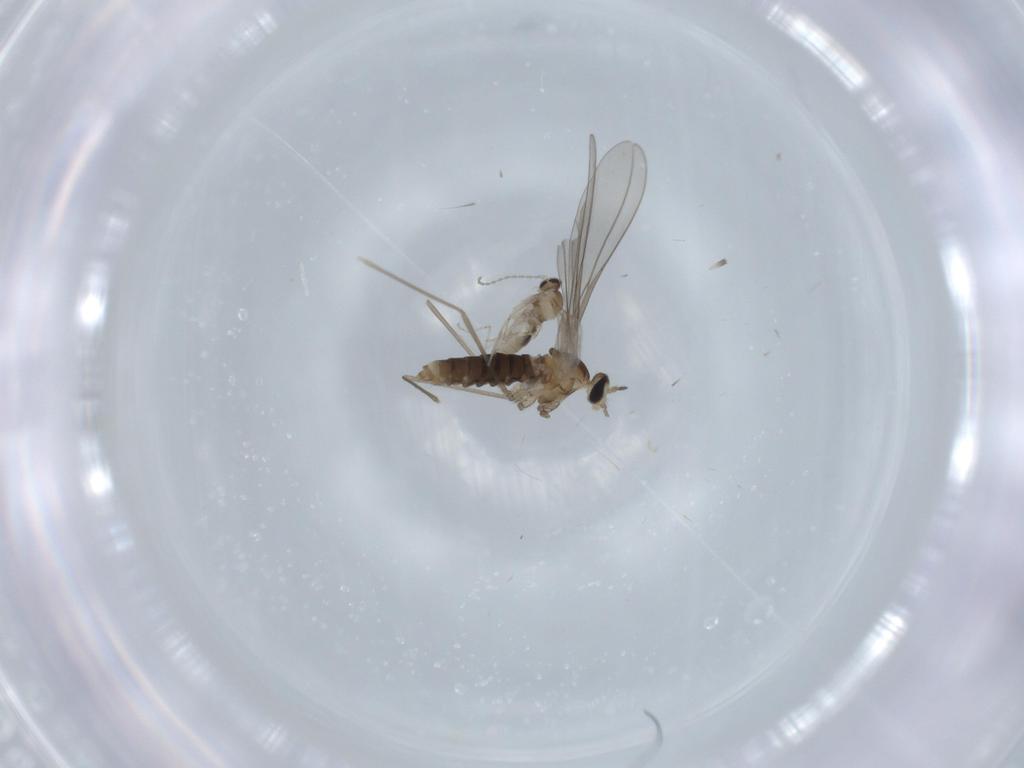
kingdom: Animalia
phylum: Arthropoda
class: Insecta
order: Diptera
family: Cecidomyiidae
